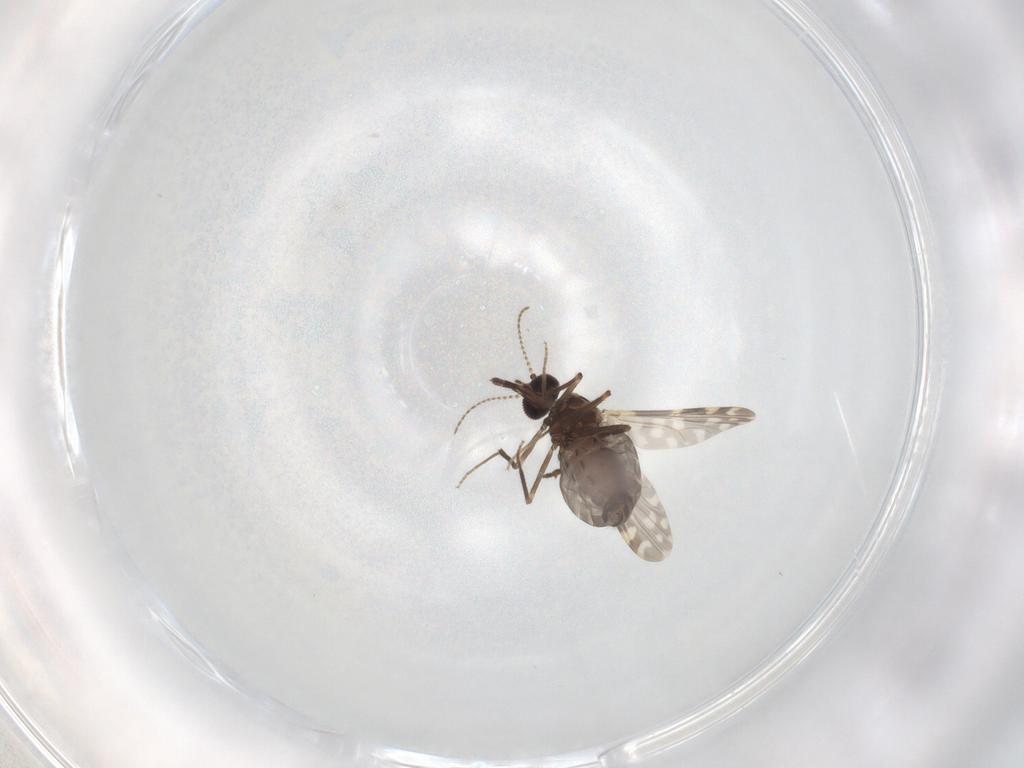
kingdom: Animalia
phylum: Arthropoda
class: Insecta
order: Diptera
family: Ceratopogonidae
